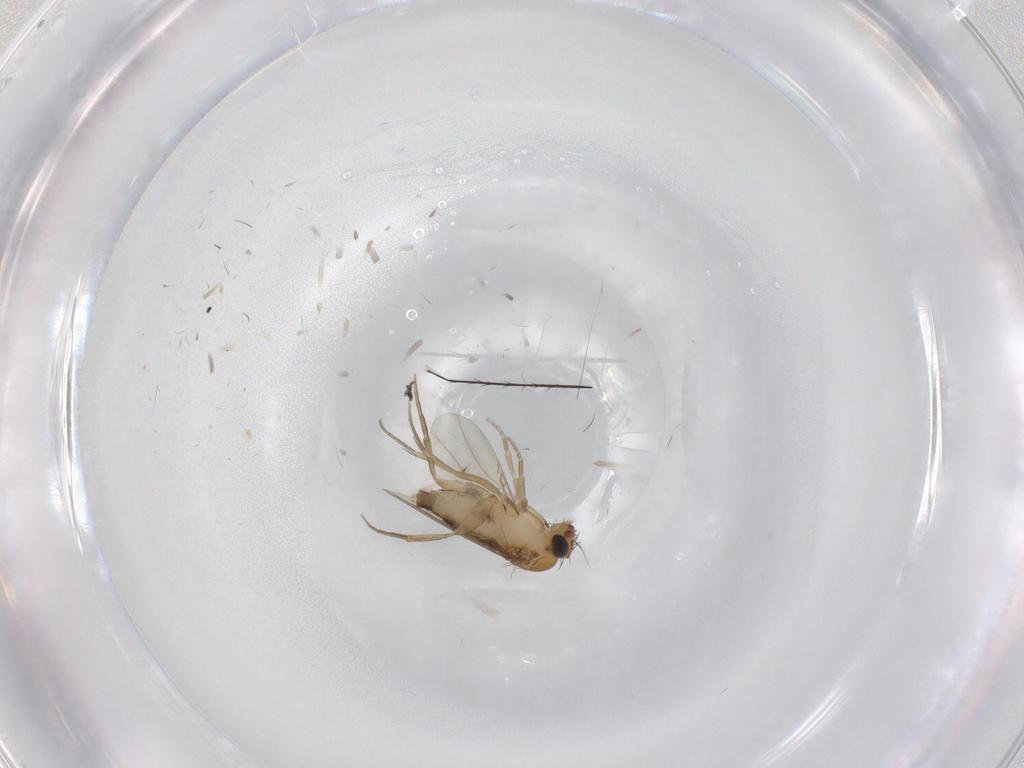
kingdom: Animalia
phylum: Arthropoda
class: Insecta
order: Diptera
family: Phoridae
